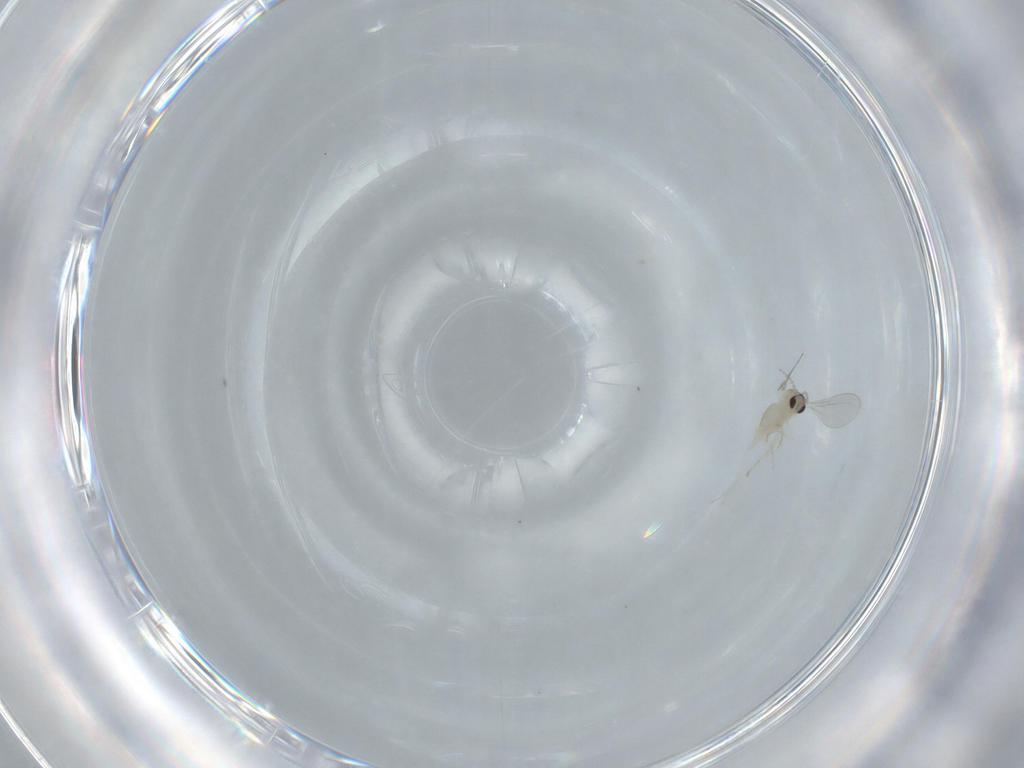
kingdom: Animalia
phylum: Arthropoda
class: Insecta
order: Diptera
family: Cecidomyiidae
